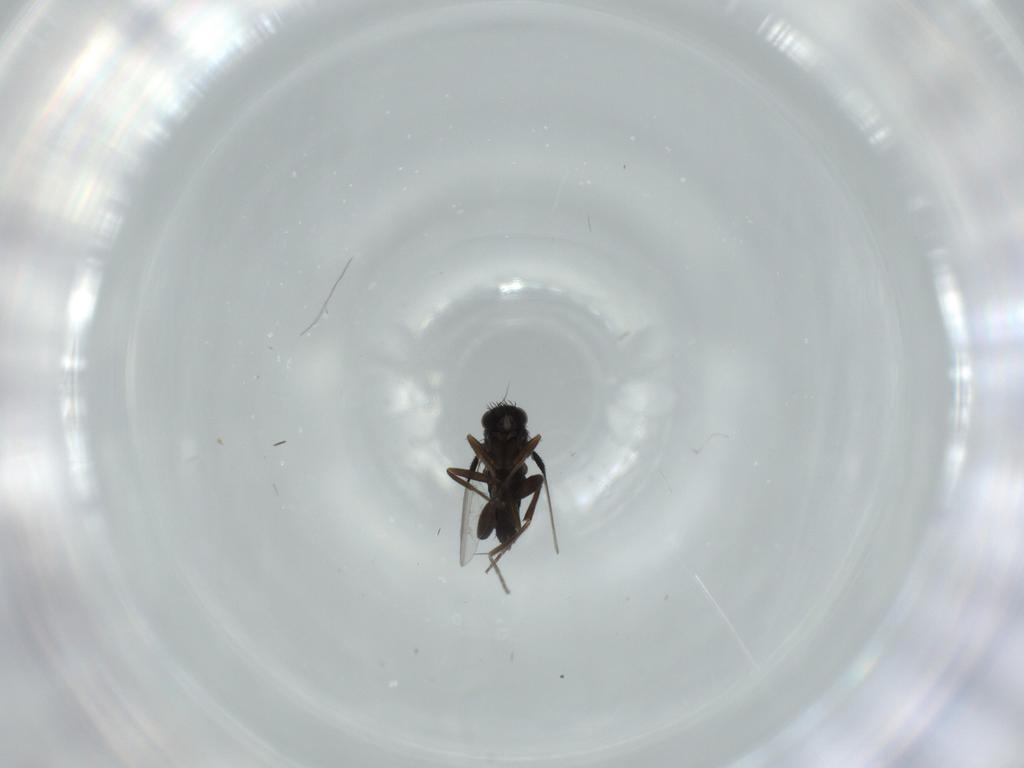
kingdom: Animalia
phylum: Arthropoda
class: Insecta
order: Diptera
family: Phoridae
